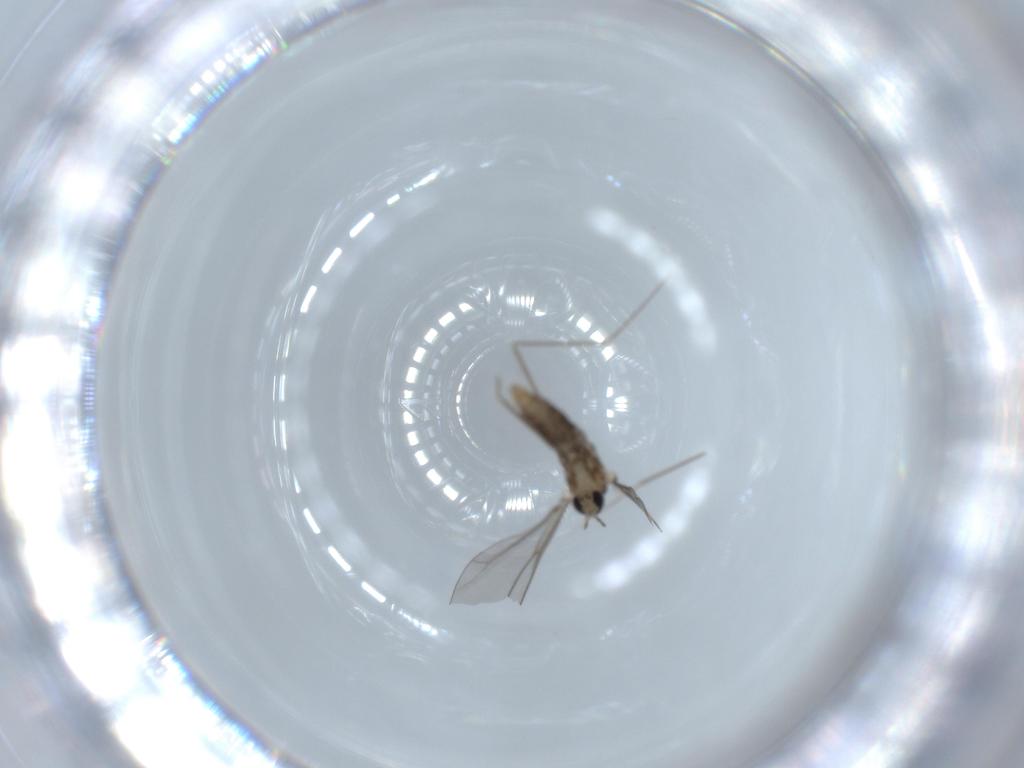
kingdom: Animalia
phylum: Arthropoda
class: Insecta
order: Diptera
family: Cecidomyiidae
